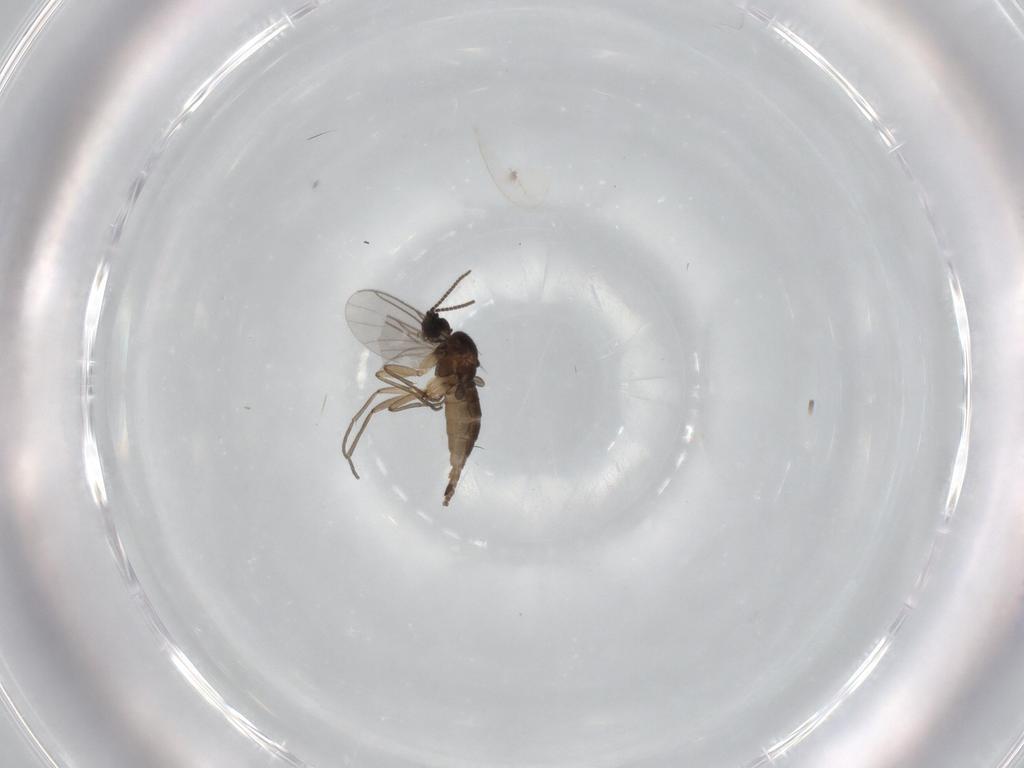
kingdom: Animalia
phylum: Arthropoda
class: Insecta
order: Diptera
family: Sciaridae
